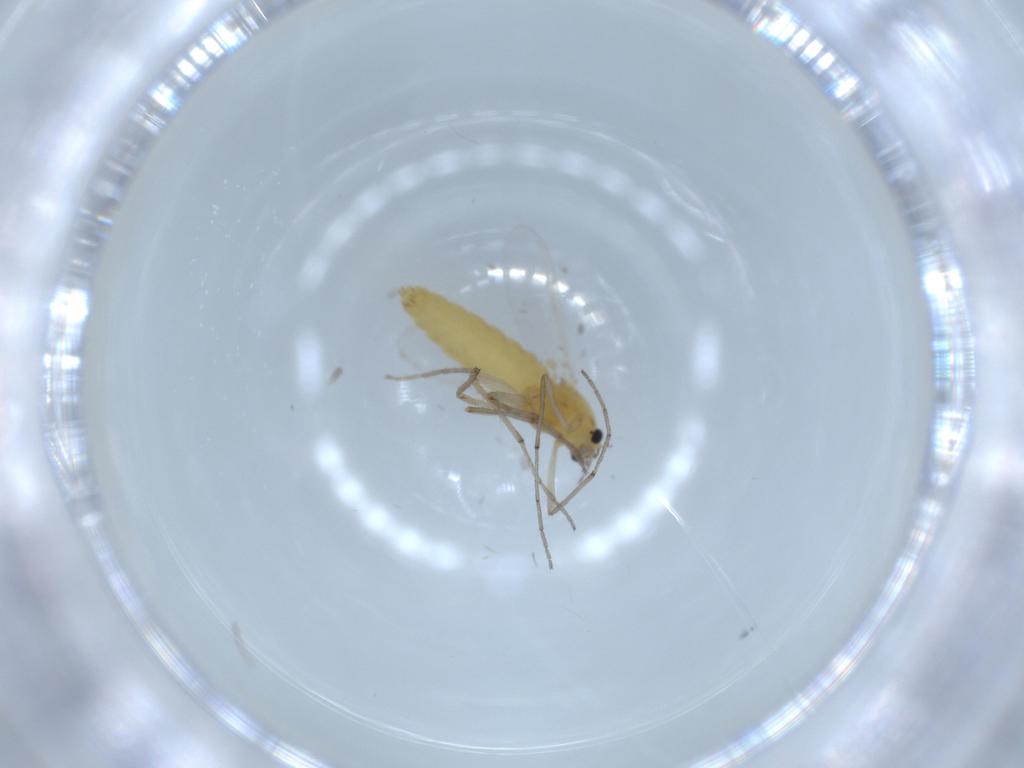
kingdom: Animalia
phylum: Arthropoda
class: Insecta
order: Diptera
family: Chironomidae
